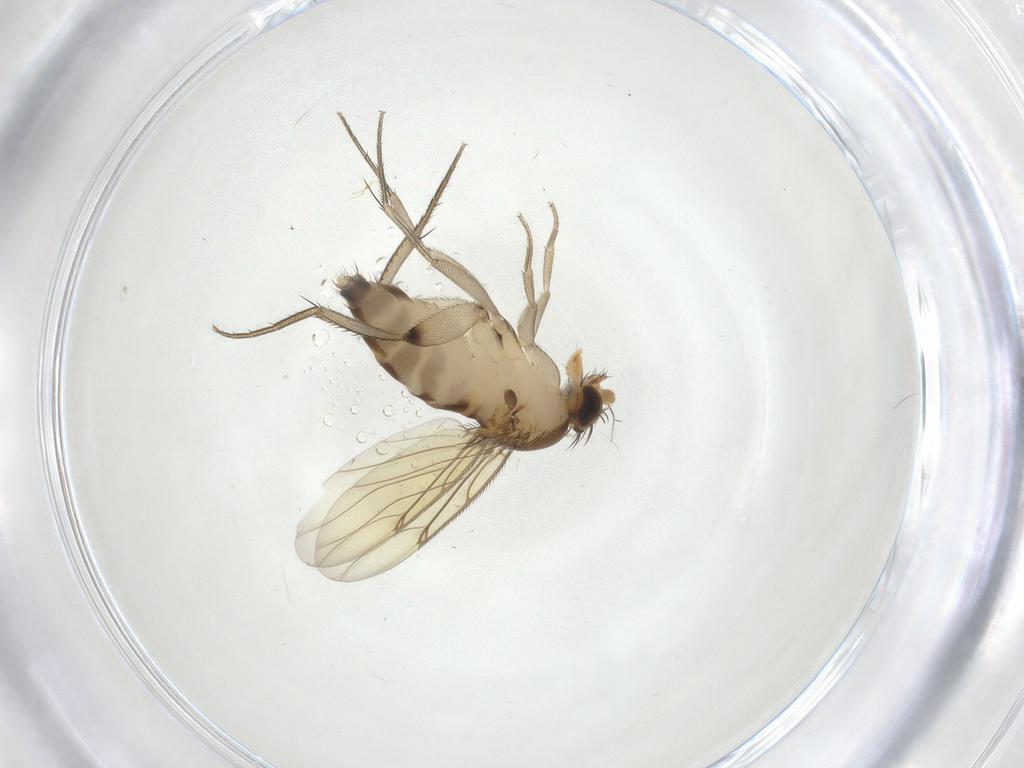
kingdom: Animalia
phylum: Arthropoda
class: Insecta
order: Diptera
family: Phoridae
